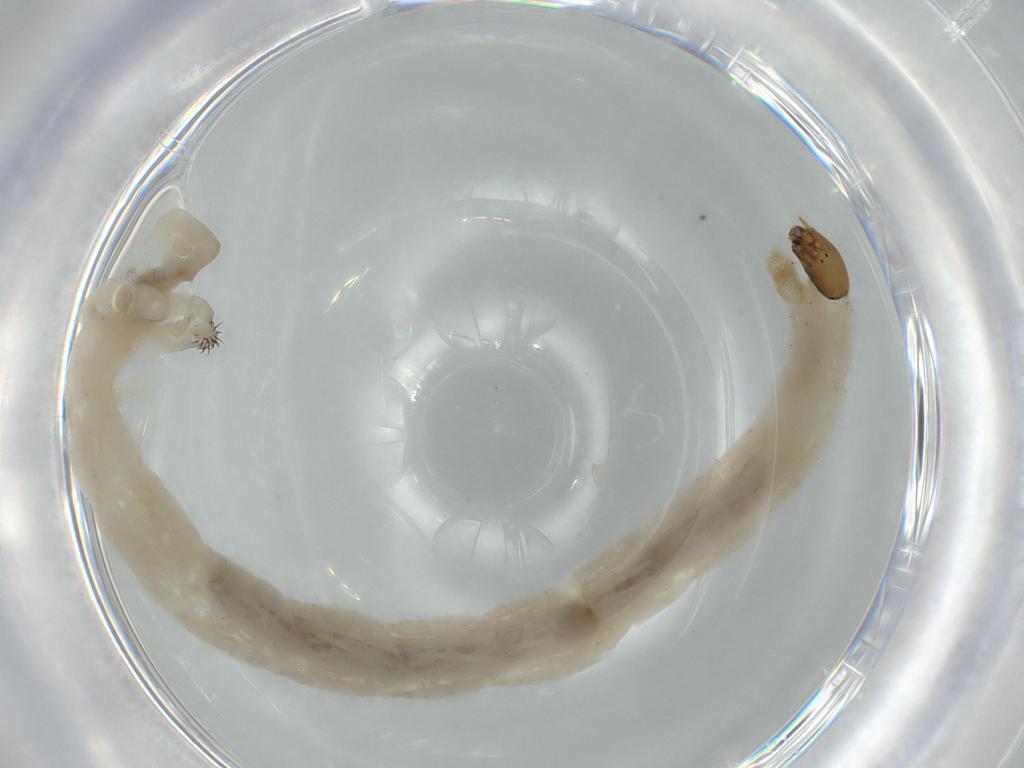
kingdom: Animalia
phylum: Arthropoda
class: Insecta
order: Diptera
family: Chironomidae
